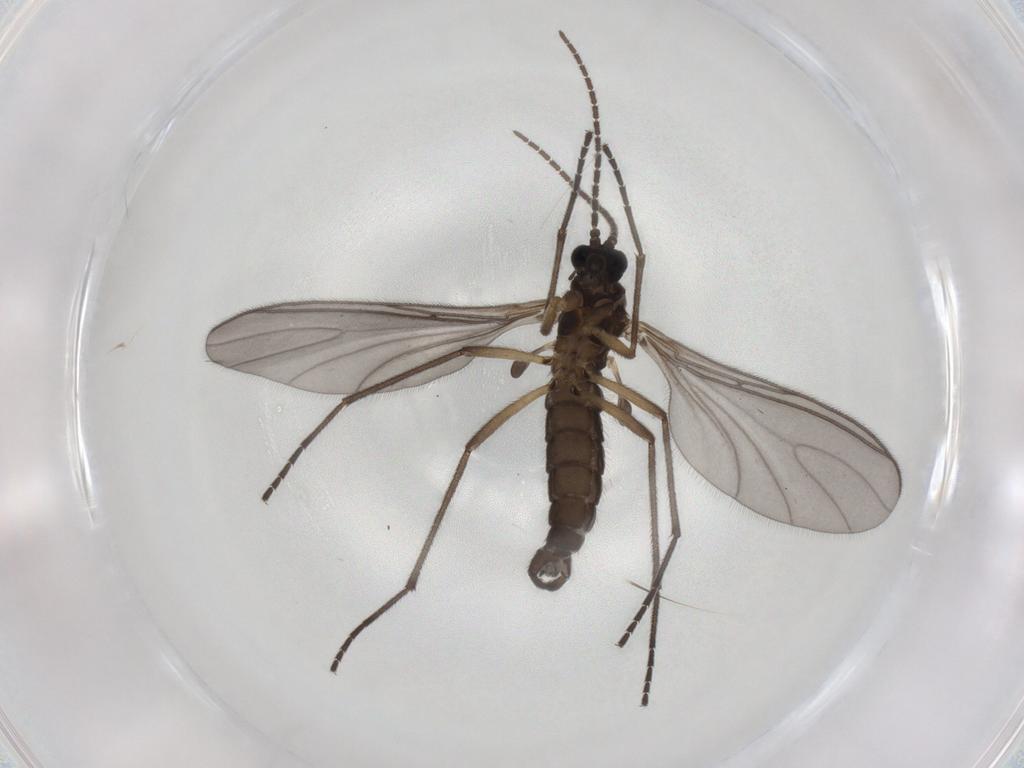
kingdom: Animalia
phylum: Arthropoda
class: Insecta
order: Diptera
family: Sciaridae
